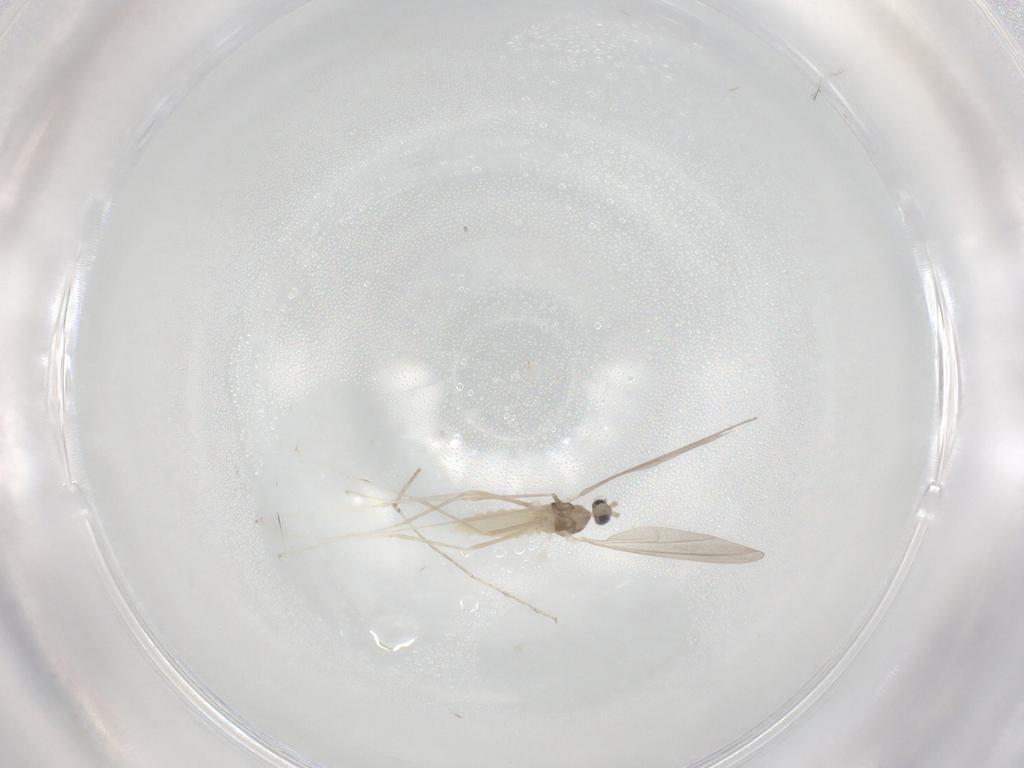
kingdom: Animalia
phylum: Arthropoda
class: Insecta
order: Diptera
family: Cecidomyiidae
